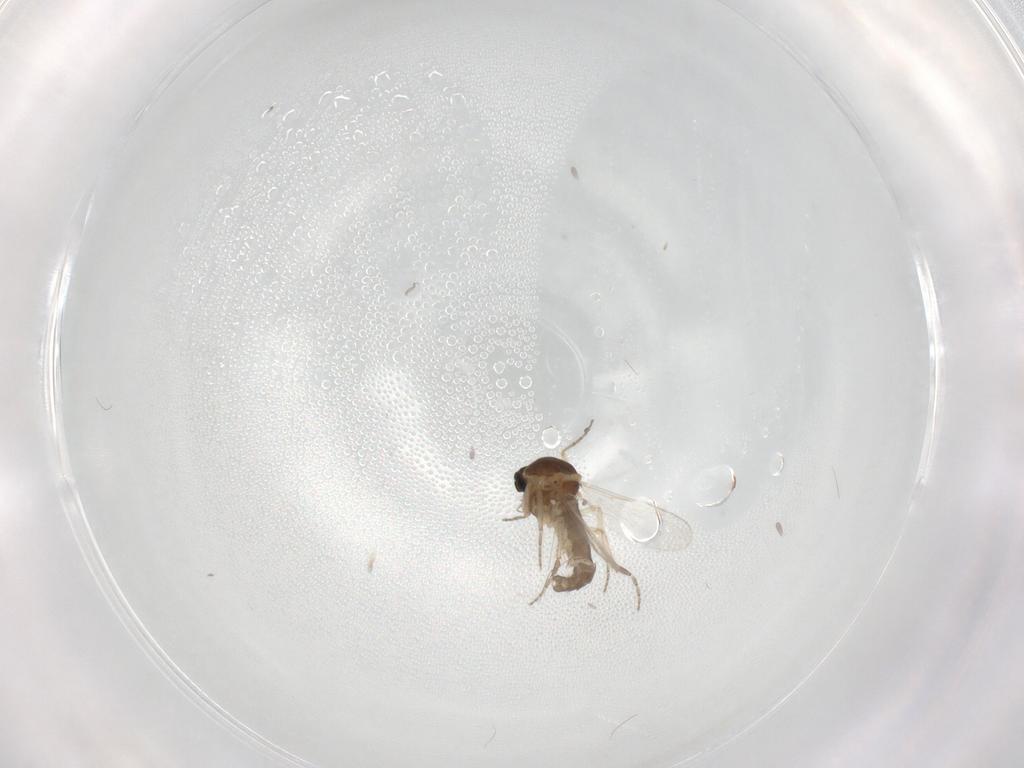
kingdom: Animalia
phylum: Arthropoda
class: Insecta
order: Diptera
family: Ceratopogonidae
